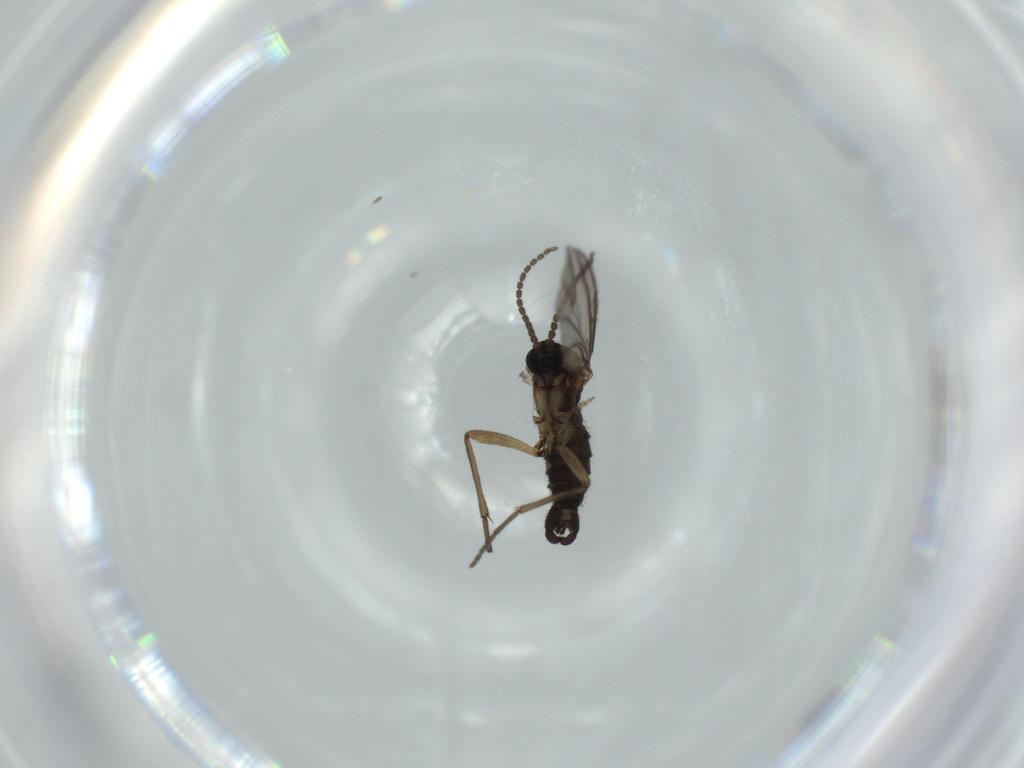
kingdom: Animalia
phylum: Arthropoda
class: Insecta
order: Diptera
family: Sciaridae
